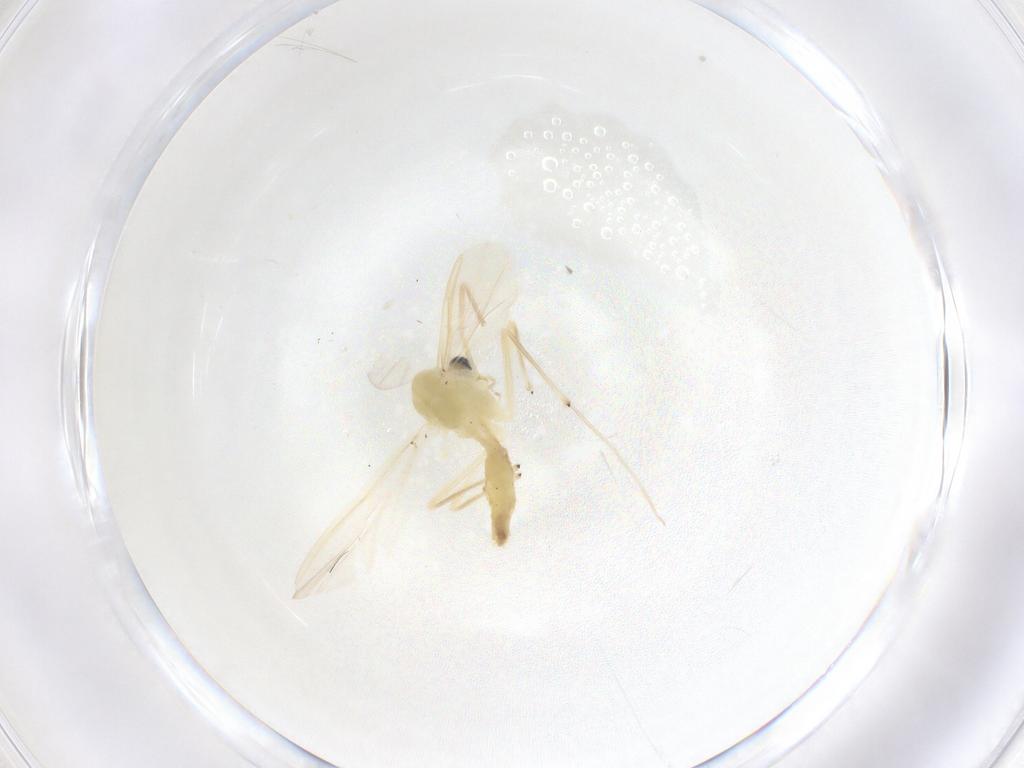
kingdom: Animalia
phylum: Arthropoda
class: Insecta
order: Diptera
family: Chironomidae
